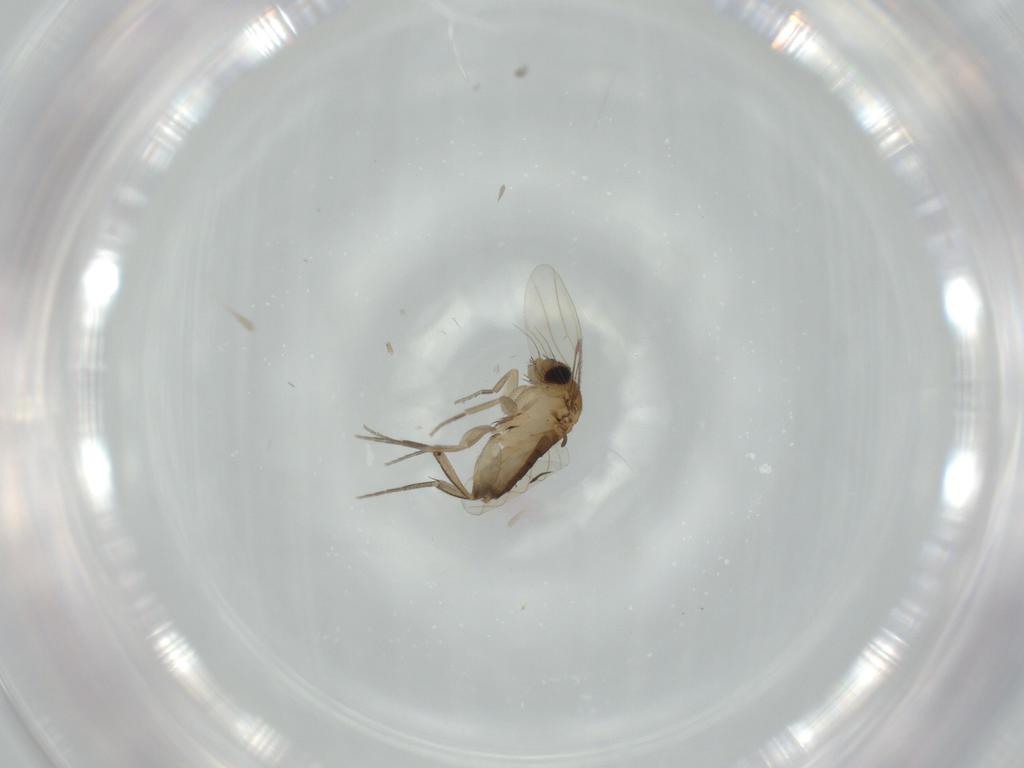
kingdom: Animalia
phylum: Arthropoda
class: Insecta
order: Diptera
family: Phoridae
